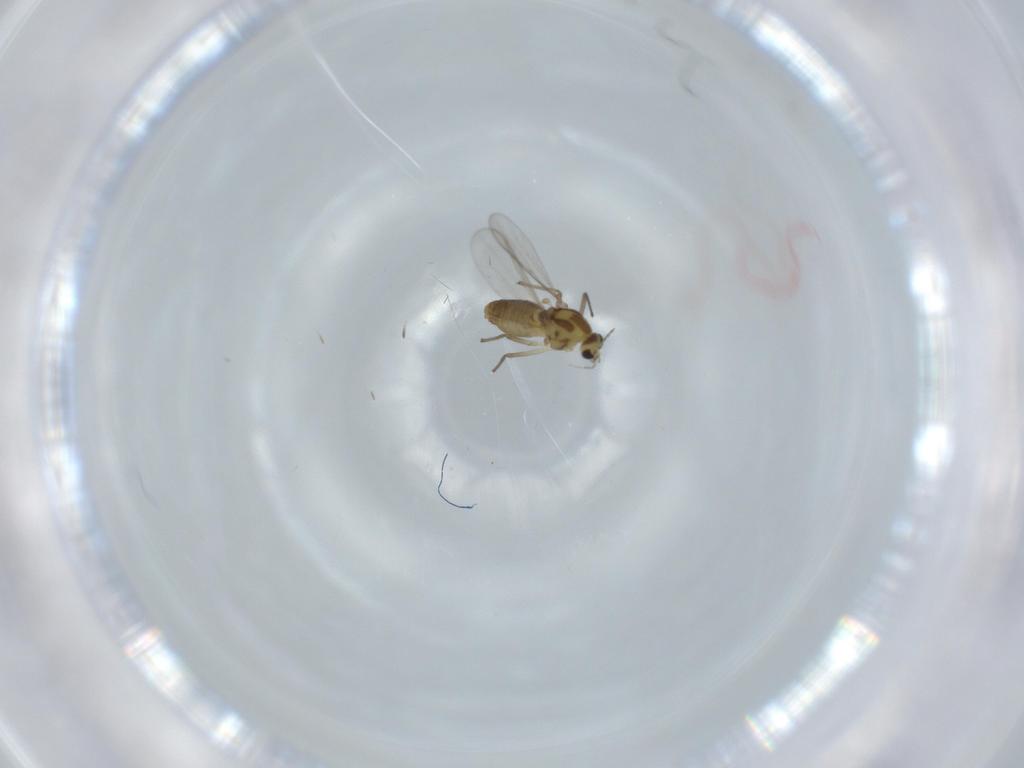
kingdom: Animalia
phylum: Arthropoda
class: Insecta
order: Diptera
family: Chironomidae
